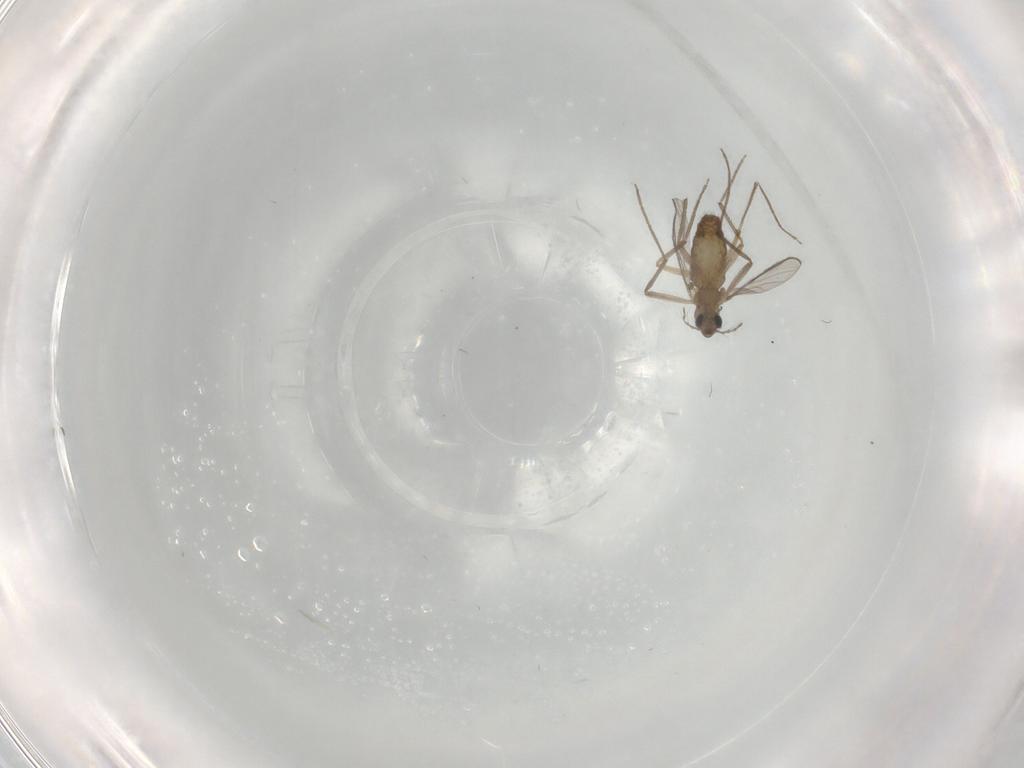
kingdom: Animalia
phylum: Arthropoda
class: Insecta
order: Diptera
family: Chironomidae
